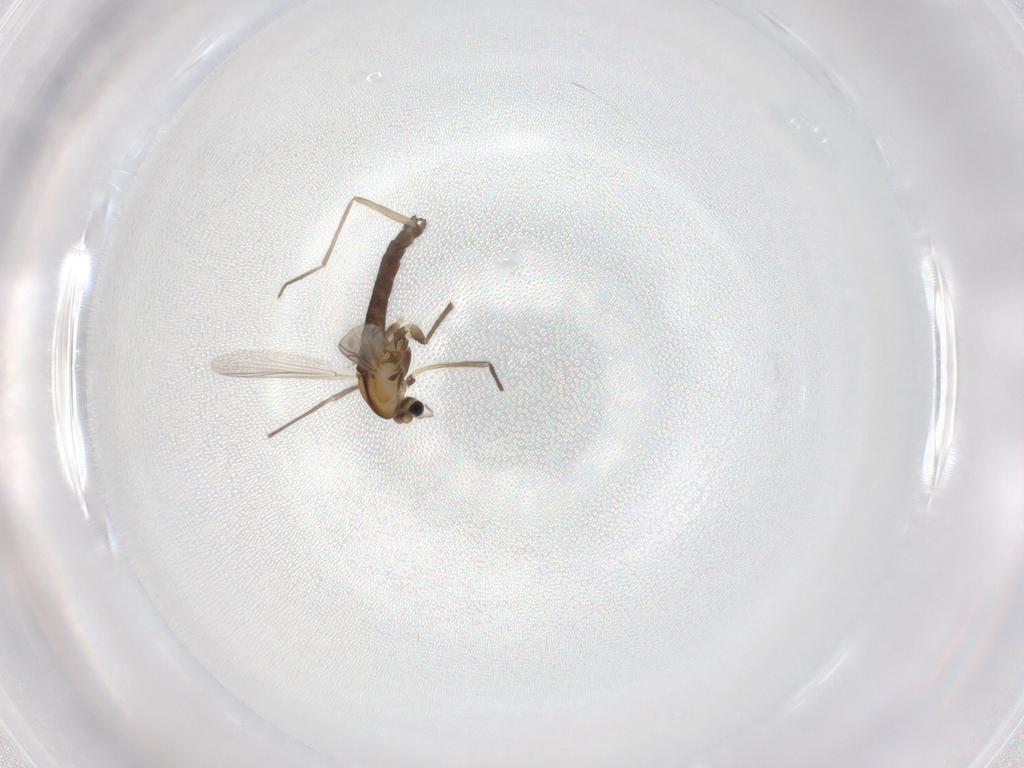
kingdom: Animalia
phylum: Arthropoda
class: Insecta
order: Diptera
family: Chironomidae
